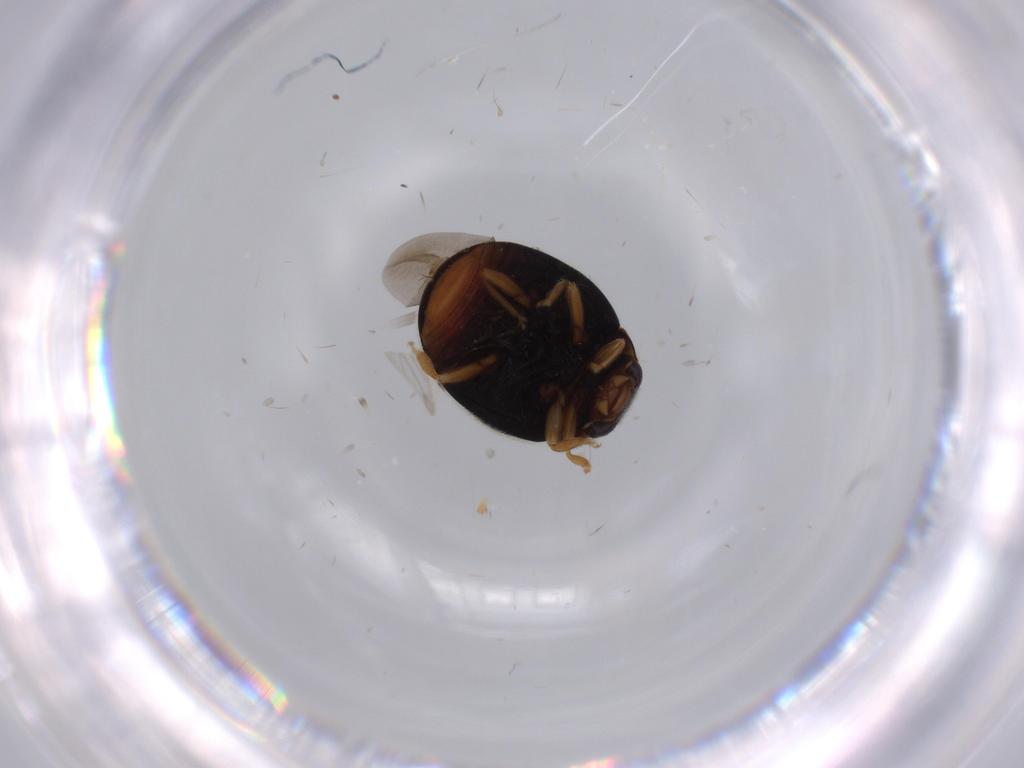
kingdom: Animalia
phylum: Arthropoda
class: Insecta
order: Coleoptera
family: Coccinellidae
